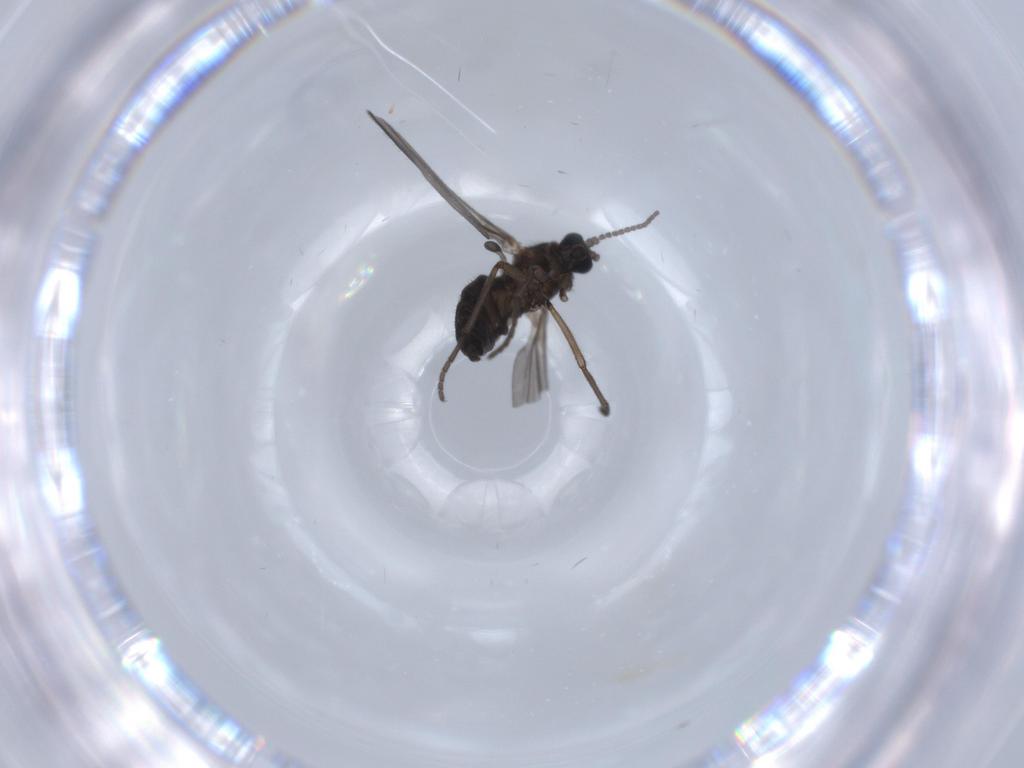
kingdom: Animalia
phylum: Arthropoda
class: Insecta
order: Diptera
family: Sciaridae
